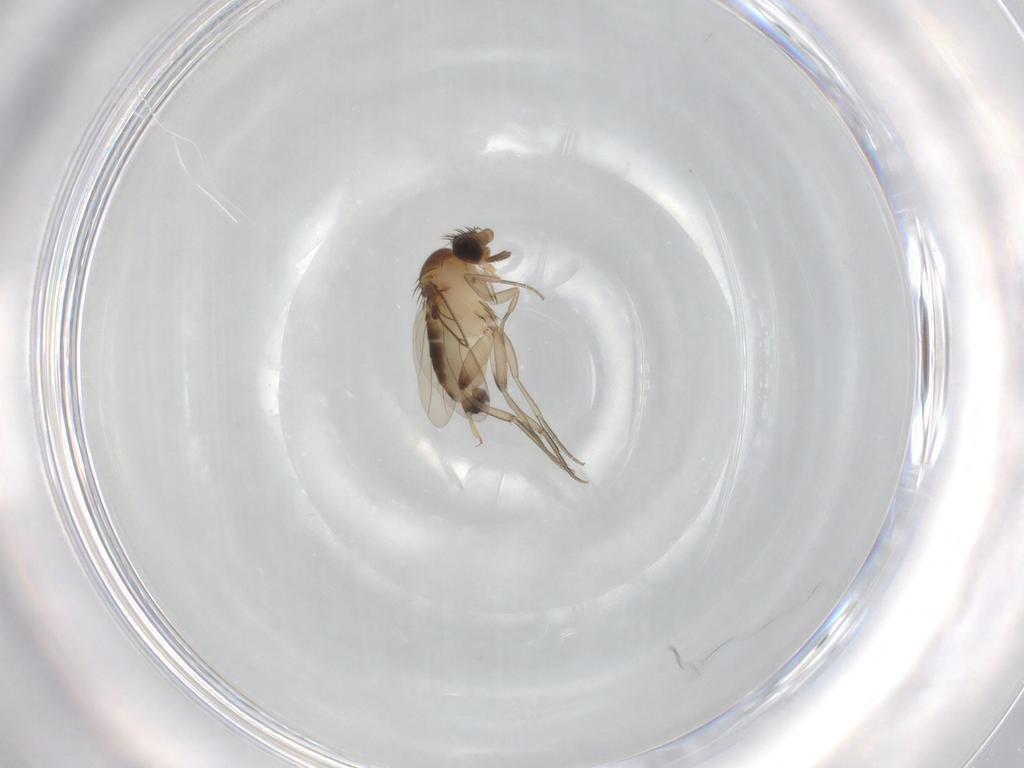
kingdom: Animalia
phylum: Arthropoda
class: Insecta
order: Diptera
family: Phoridae
